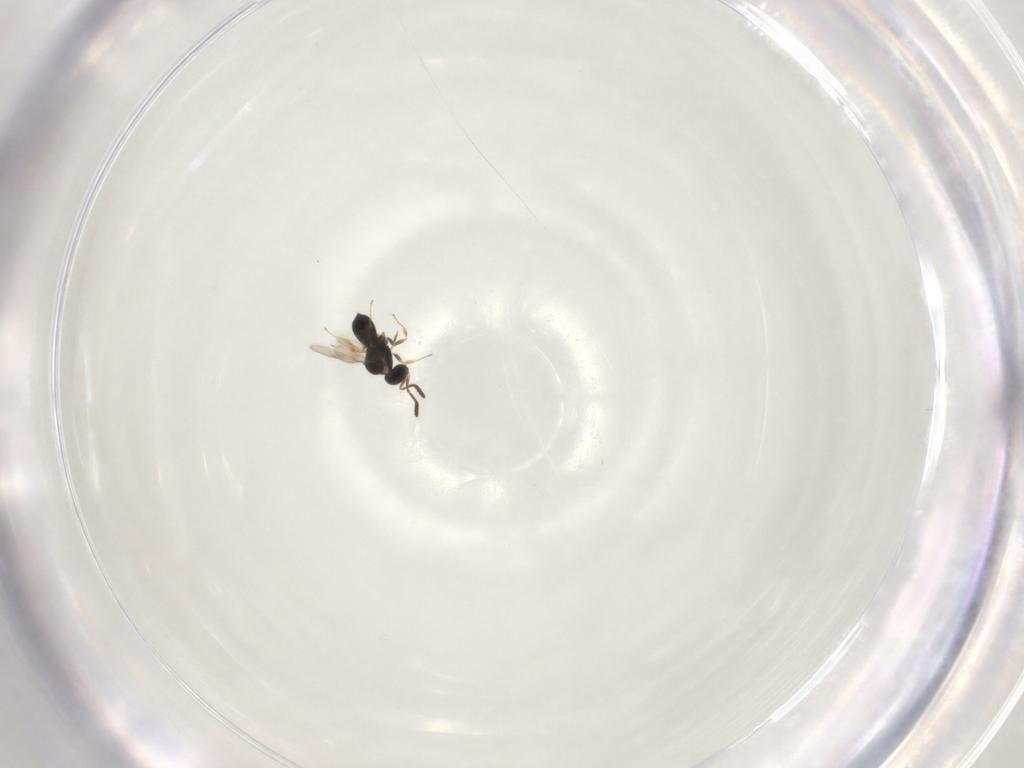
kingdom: Animalia
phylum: Arthropoda
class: Insecta
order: Hymenoptera
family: Scelionidae
